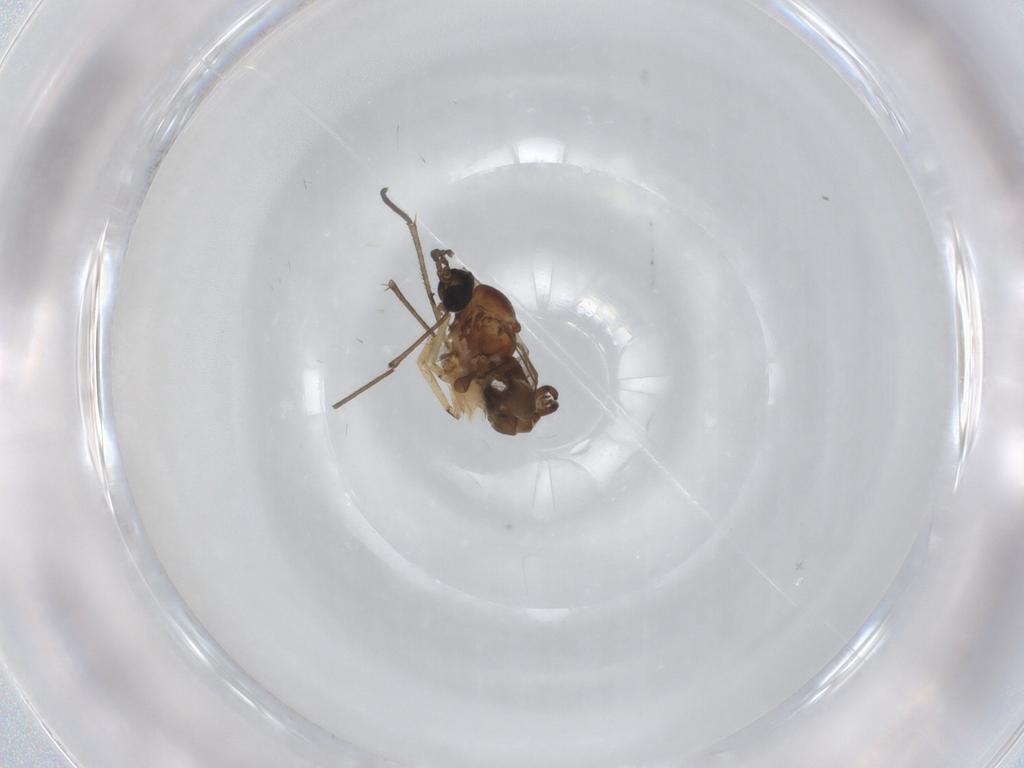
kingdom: Animalia
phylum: Arthropoda
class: Insecta
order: Diptera
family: Sciaridae
